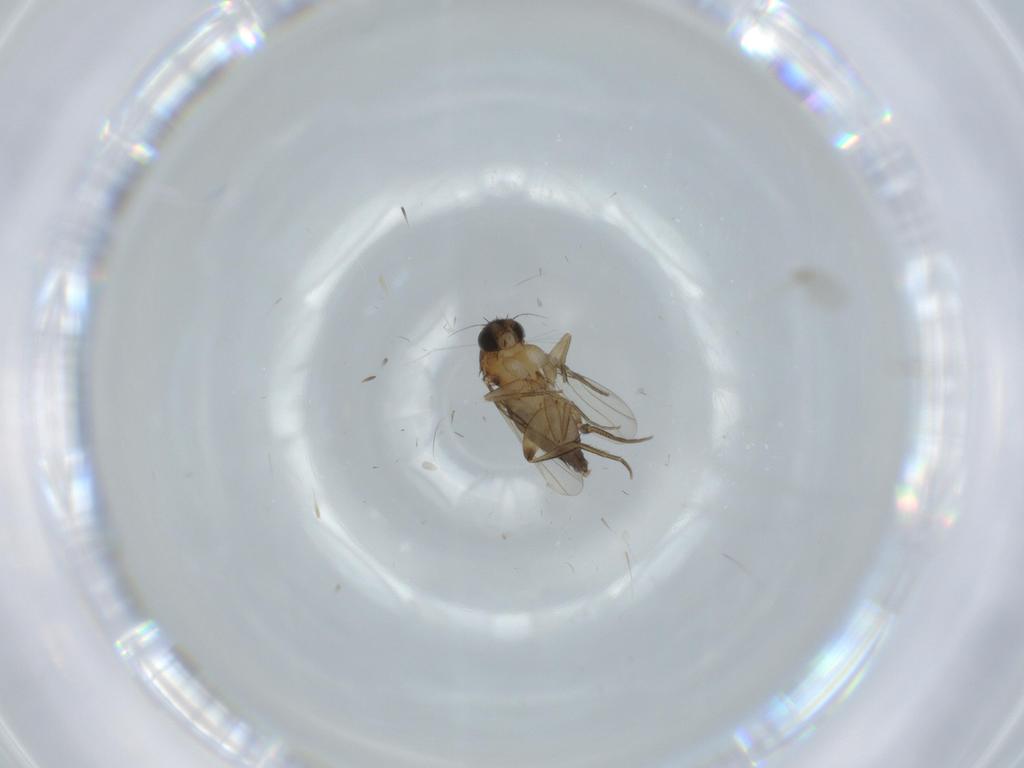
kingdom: Animalia
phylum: Arthropoda
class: Insecta
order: Diptera
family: Phoridae
